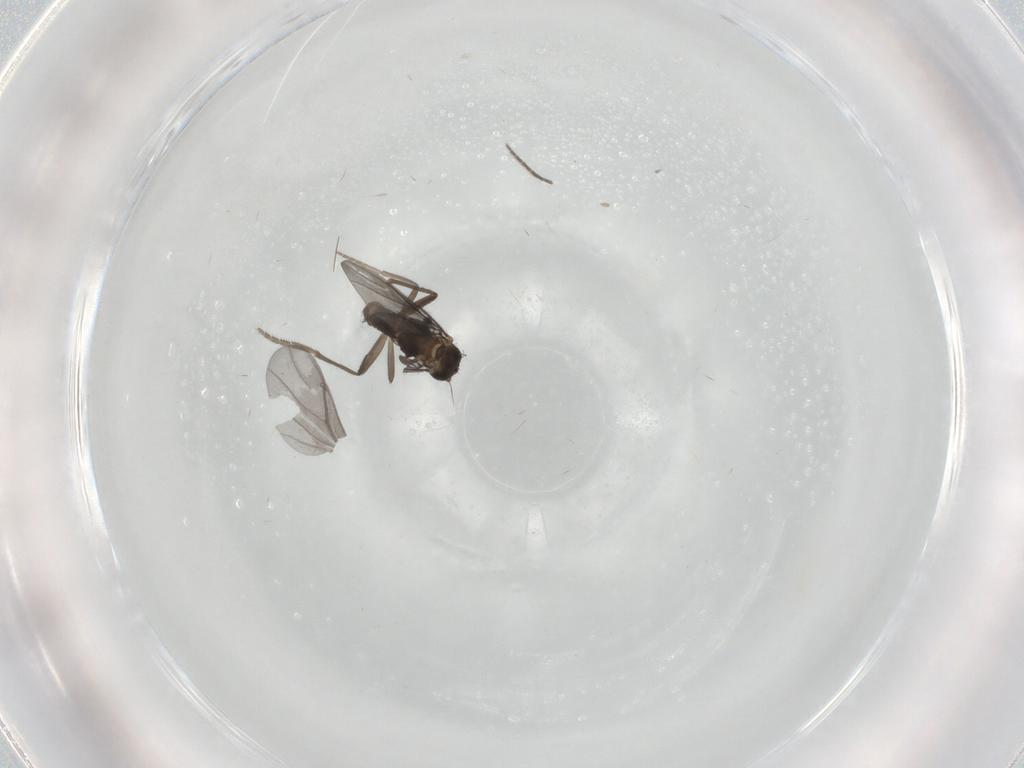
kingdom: Animalia
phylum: Arthropoda
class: Insecta
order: Diptera
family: Phoridae
